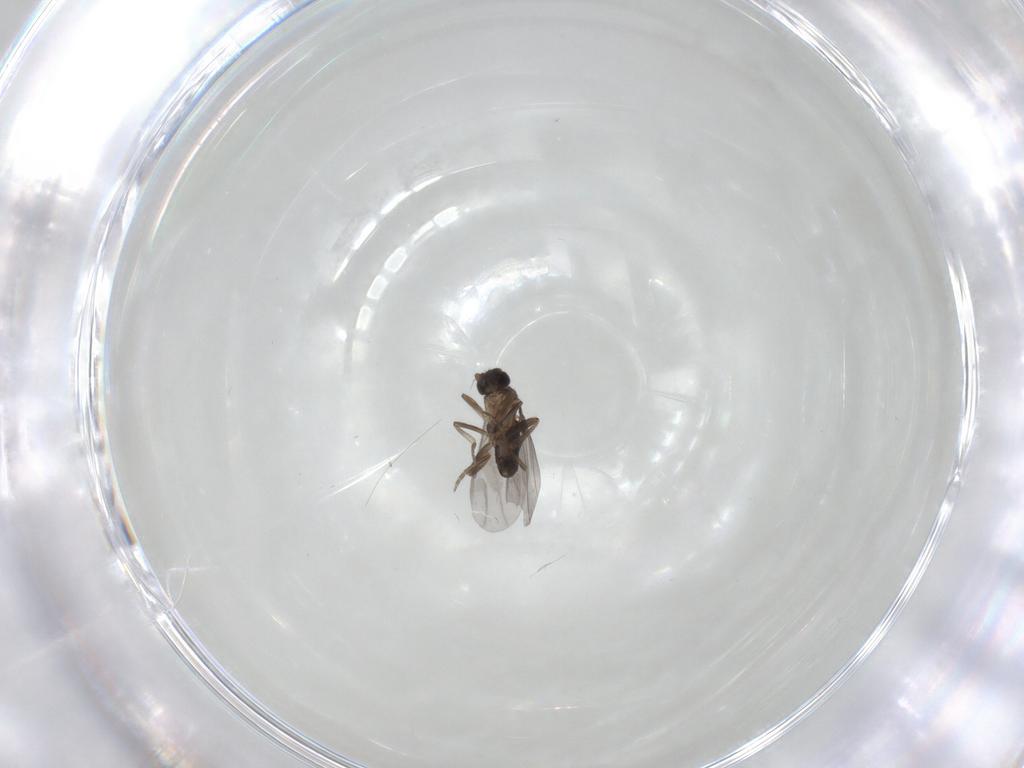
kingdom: Animalia
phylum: Arthropoda
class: Insecta
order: Diptera
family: Phoridae
